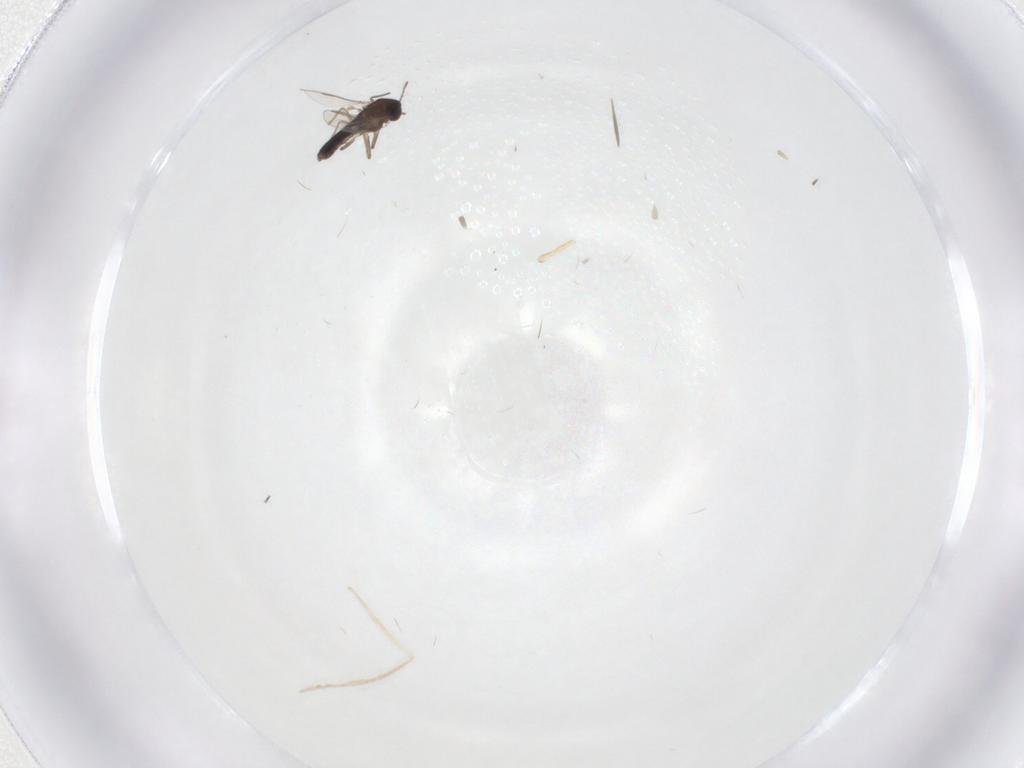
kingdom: Animalia
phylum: Arthropoda
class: Insecta
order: Diptera
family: Chironomidae
